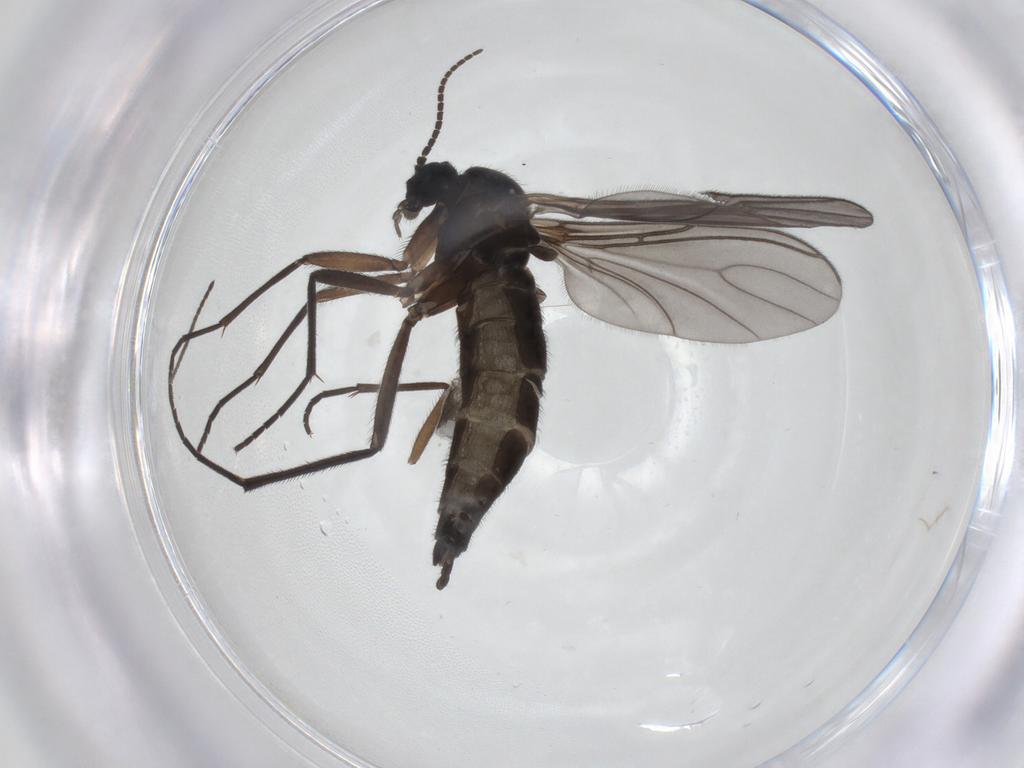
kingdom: Animalia
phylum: Arthropoda
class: Insecta
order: Diptera
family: Sciaridae
